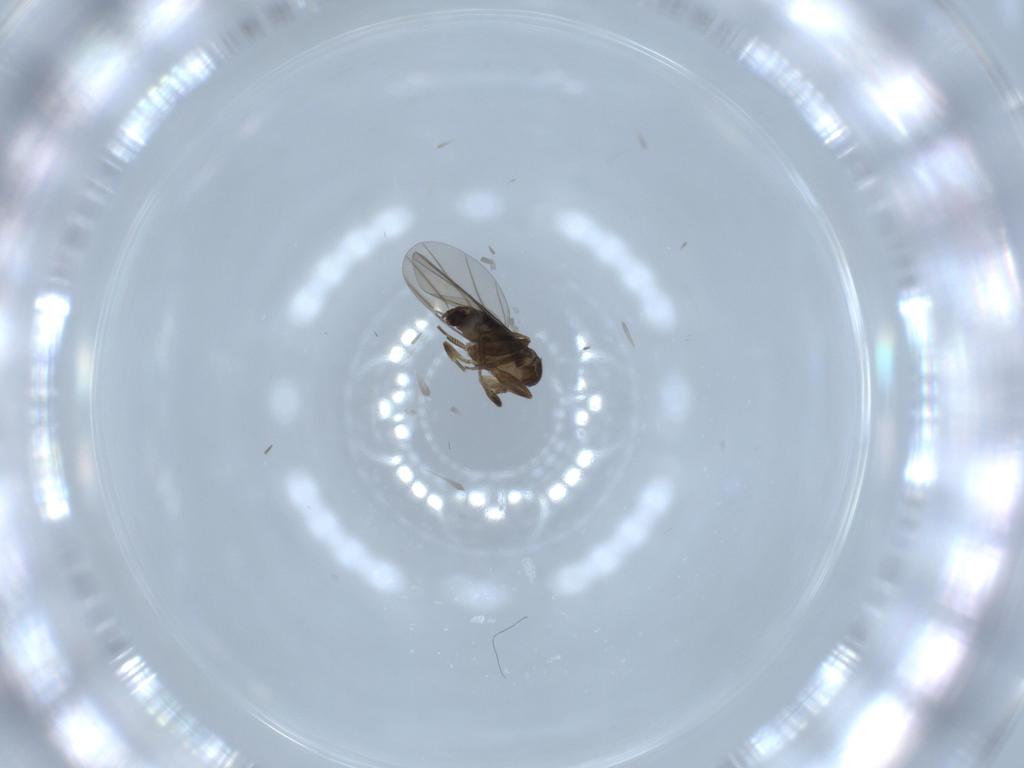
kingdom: Animalia
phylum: Arthropoda
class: Insecta
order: Diptera
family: Phoridae
